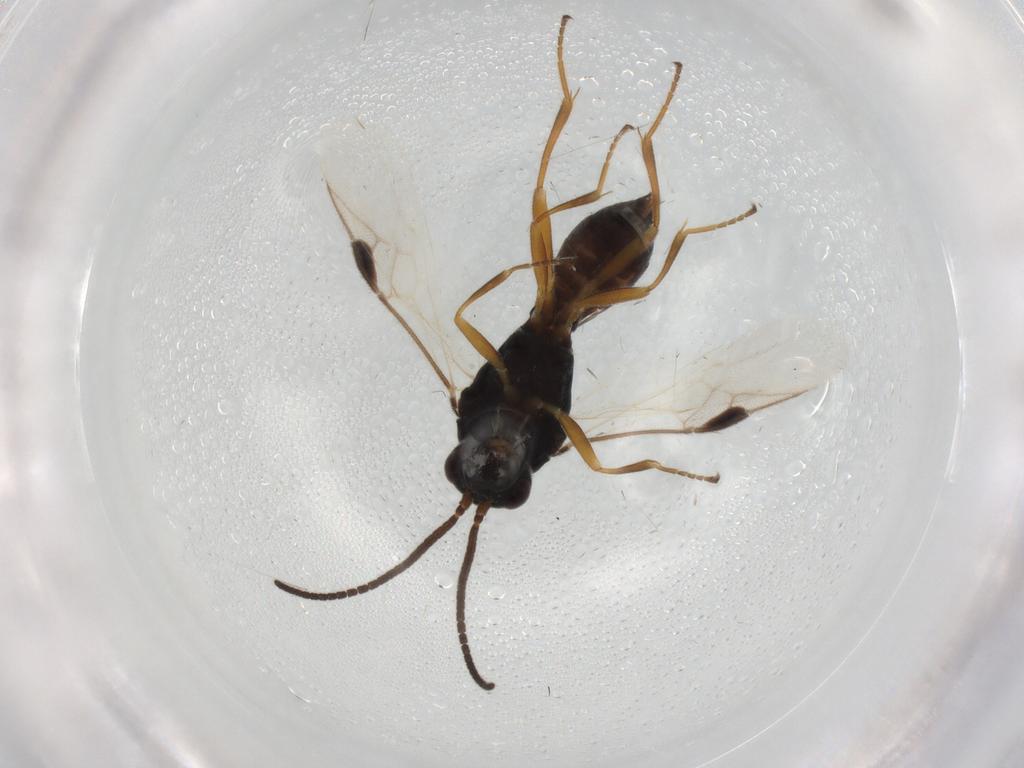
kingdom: Animalia
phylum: Arthropoda
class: Insecta
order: Hymenoptera
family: Braconidae
